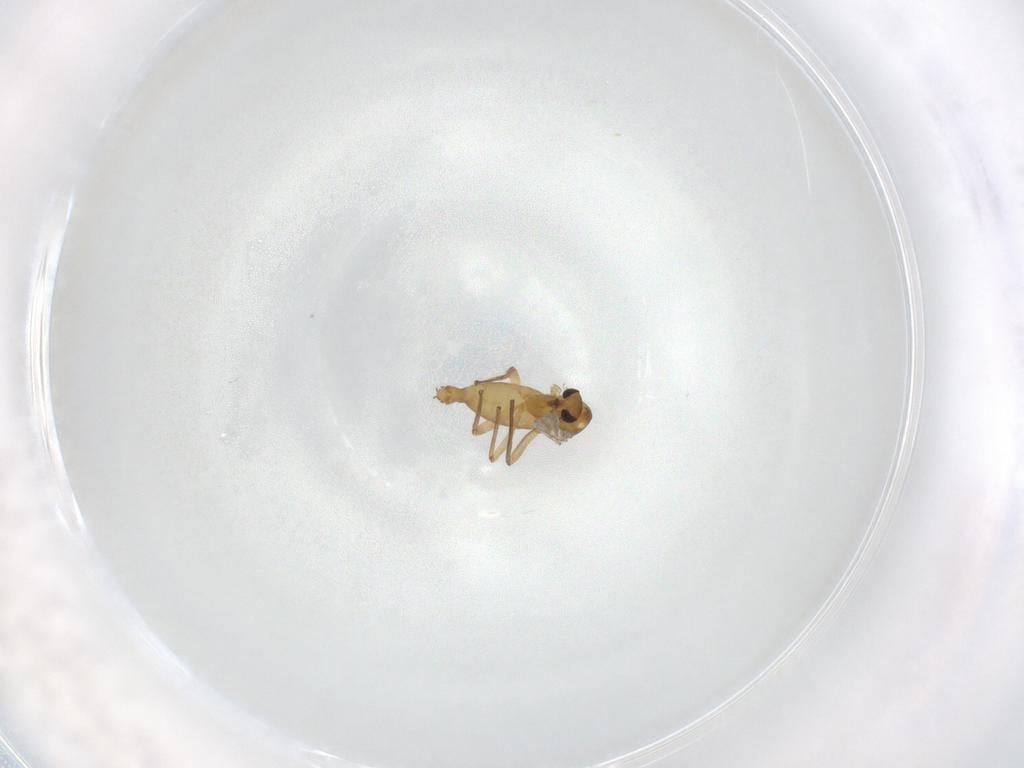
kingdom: Animalia
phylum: Arthropoda
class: Insecta
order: Diptera
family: Chironomidae
